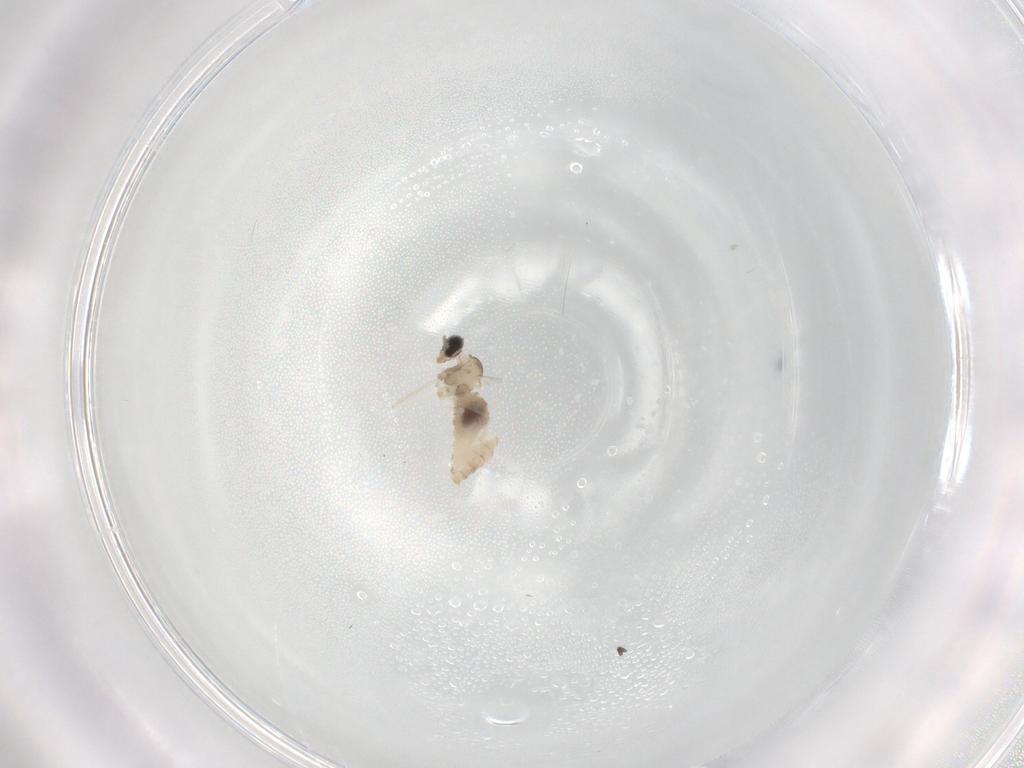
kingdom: Animalia
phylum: Arthropoda
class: Insecta
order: Diptera
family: Cecidomyiidae
